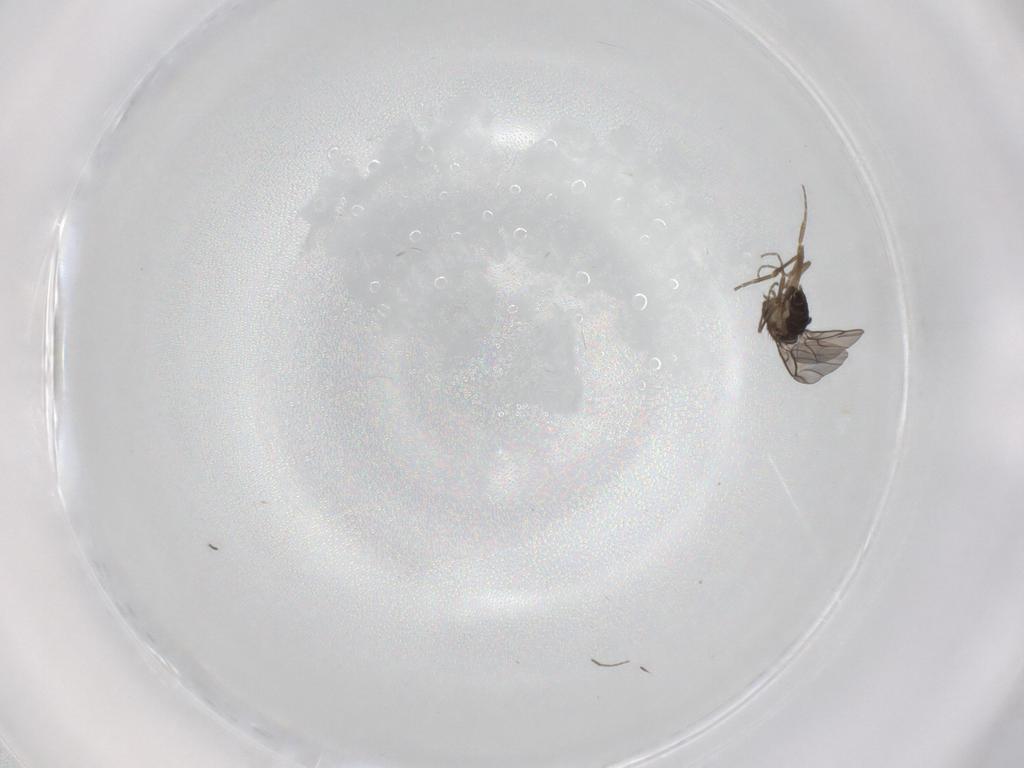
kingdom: Animalia
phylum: Arthropoda
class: Insecta
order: Diptera
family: Phoridae
